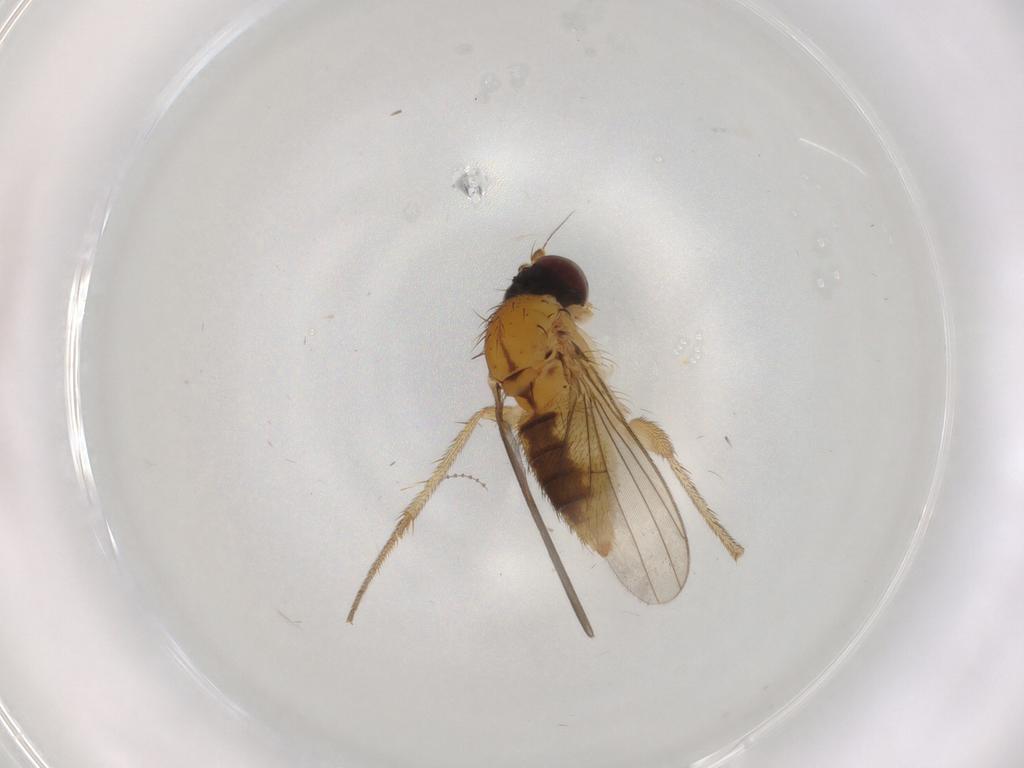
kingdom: Animalia
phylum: Arthropoda
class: Insecta
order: Diptera
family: Dolichopodidae
